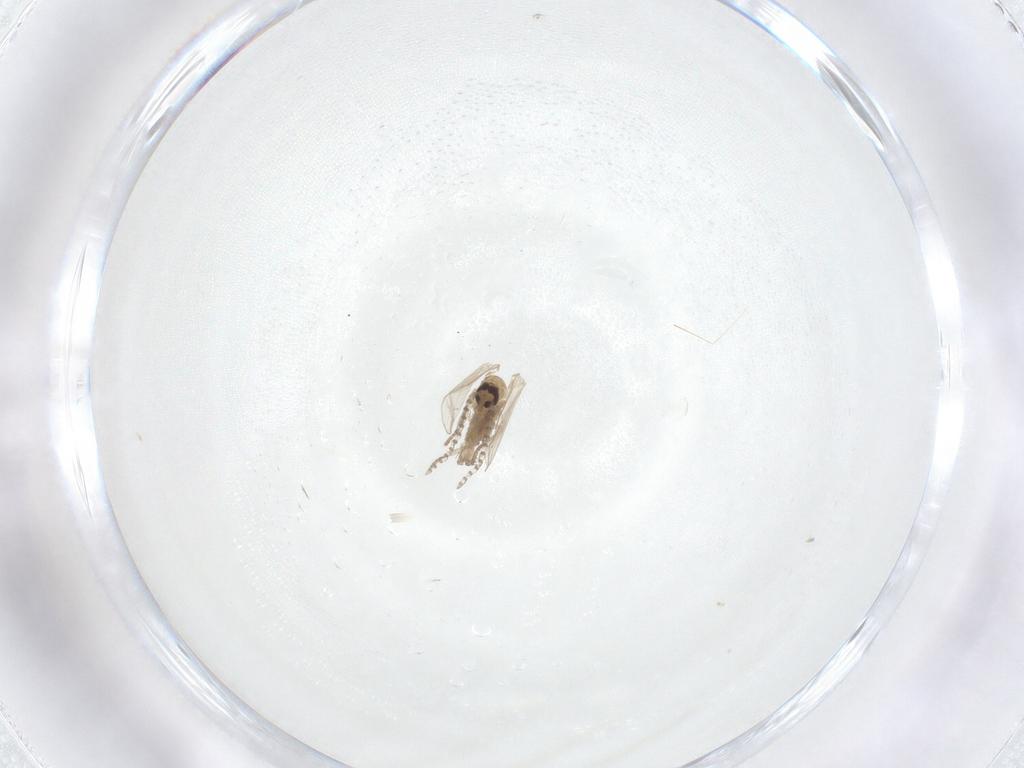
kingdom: Animalia
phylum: Arthropoda
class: Insecta
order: Diptera
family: Psychodidae
